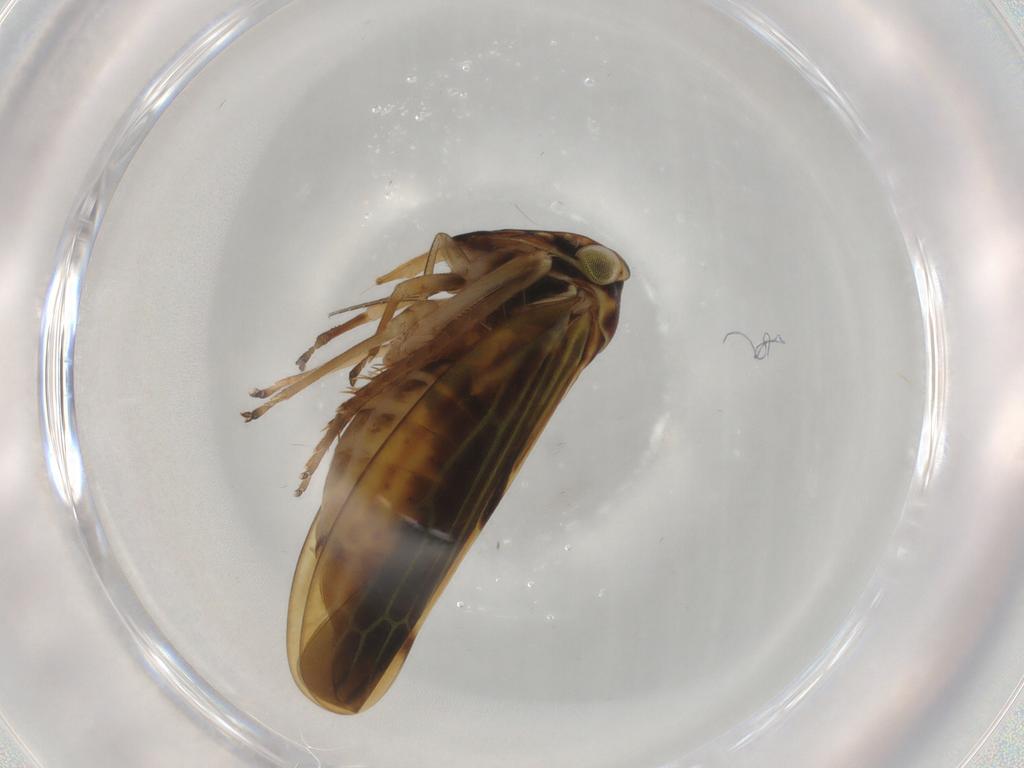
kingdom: Animalia
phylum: Arthropoda
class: Insecta
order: Hemiptera
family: Cicadellidae
